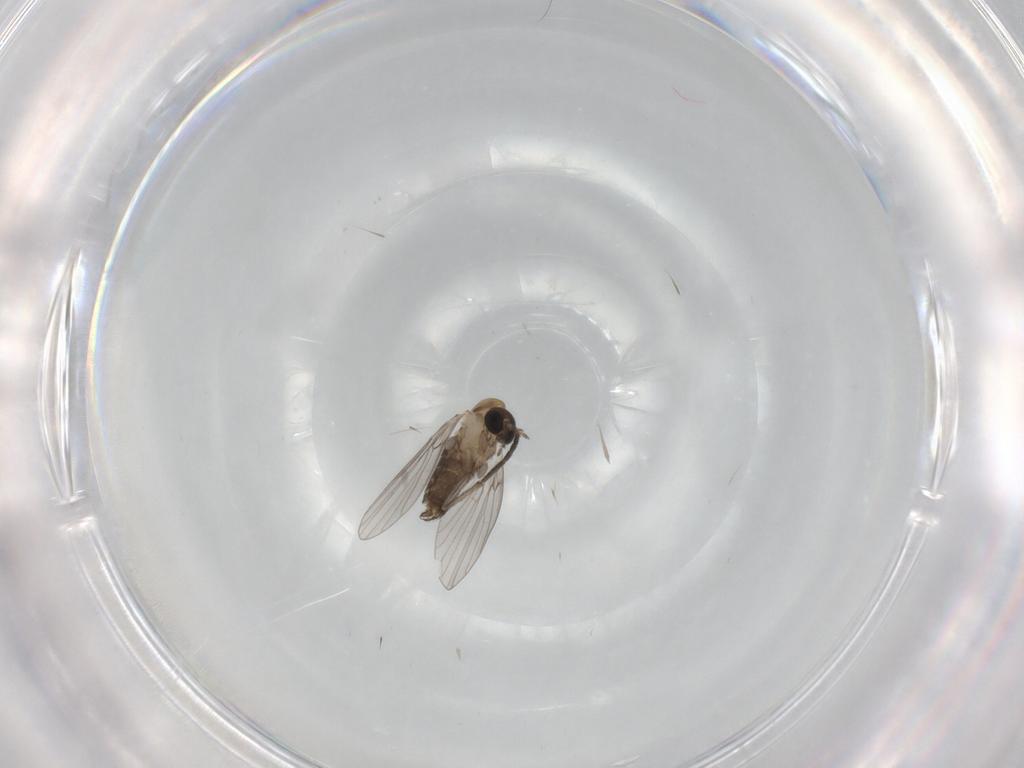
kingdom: Animalia
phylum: Arthropoda
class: Insecta
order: Diptera
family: Psychodidae
